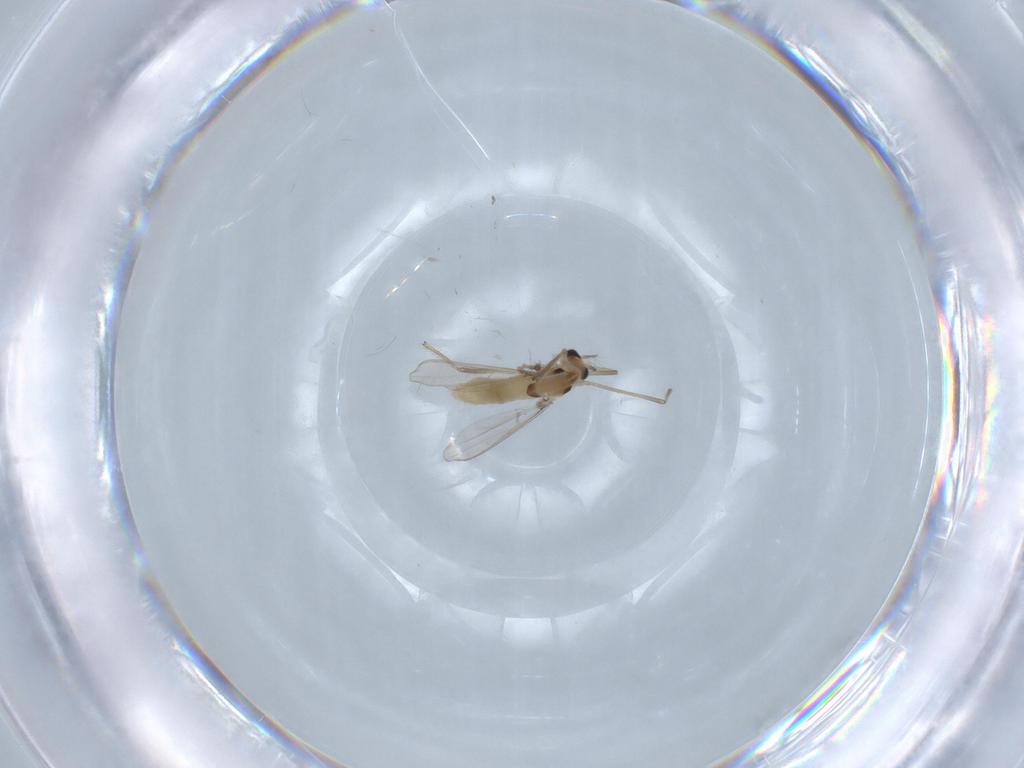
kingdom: Animalia
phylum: Arthropoda
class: Insecta
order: Diptera
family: Chironomidae
